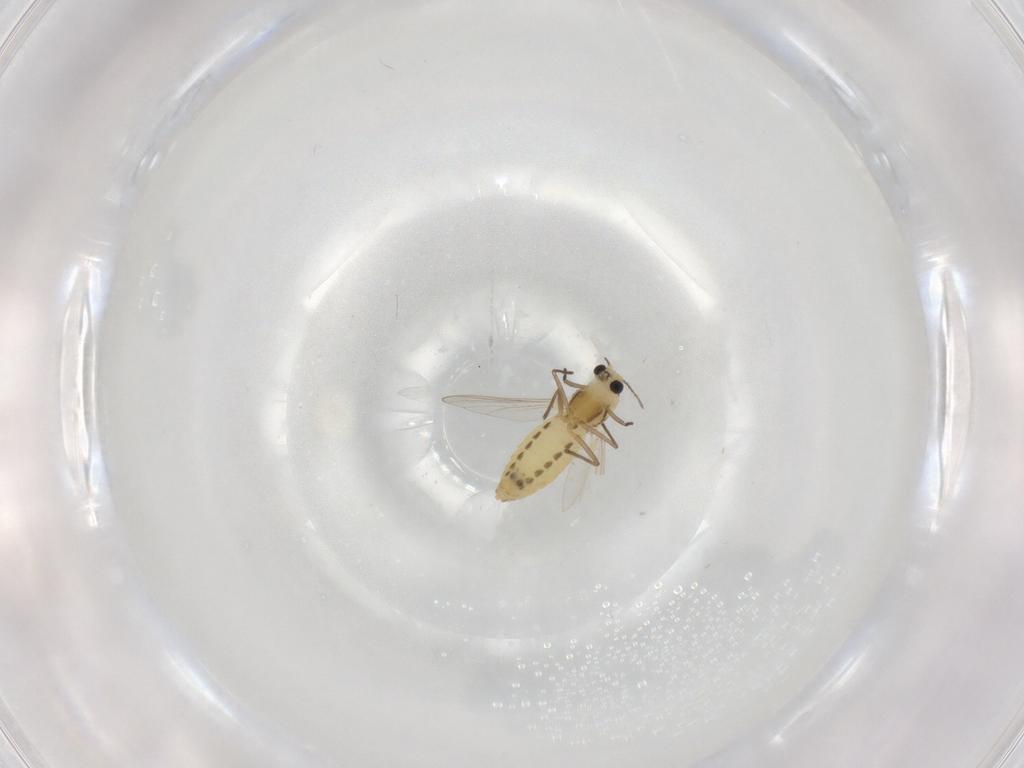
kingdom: Animalia
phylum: Arthropoda
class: Insecta
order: Diptera
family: Chironomidae
